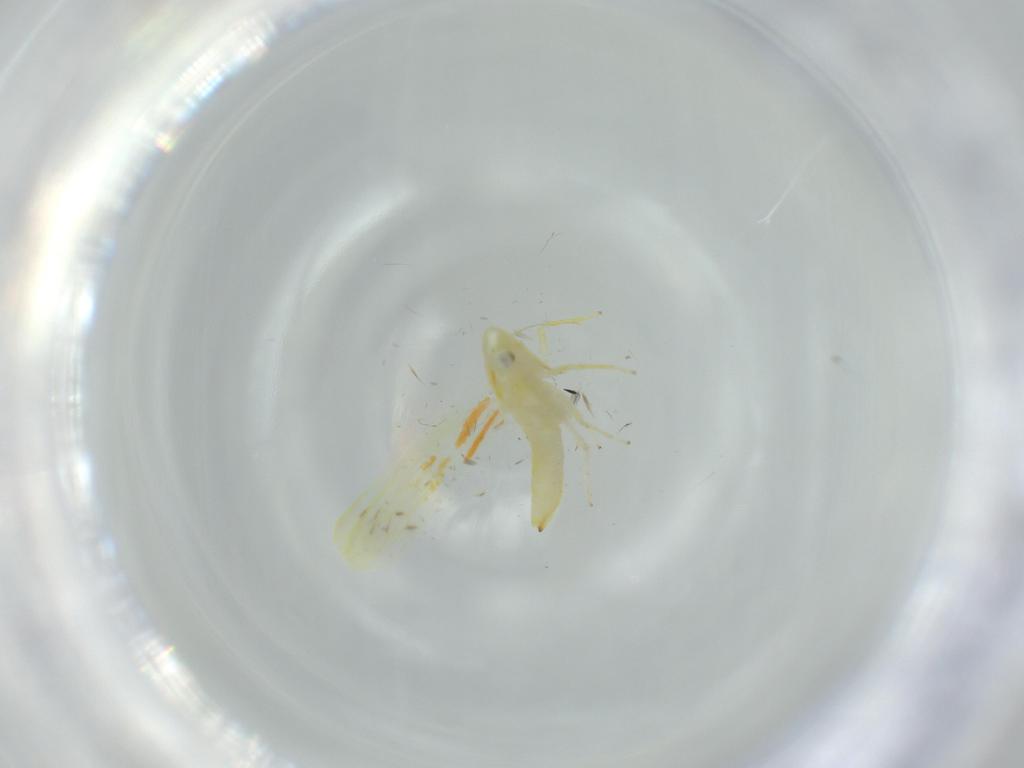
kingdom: Animalia
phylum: Arthropoda
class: Insecta
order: Hemiptera
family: Cicadellidae
